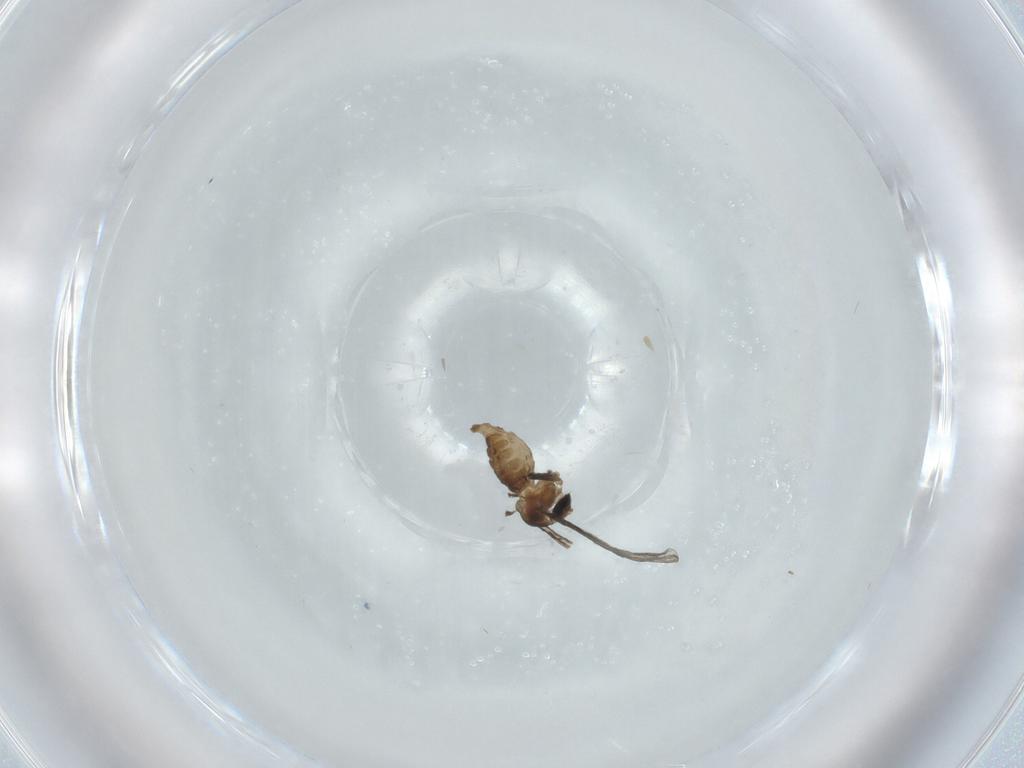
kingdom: Animalia
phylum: Arthropoda
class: Insecta
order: Diptera
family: Cecidomyiidae
